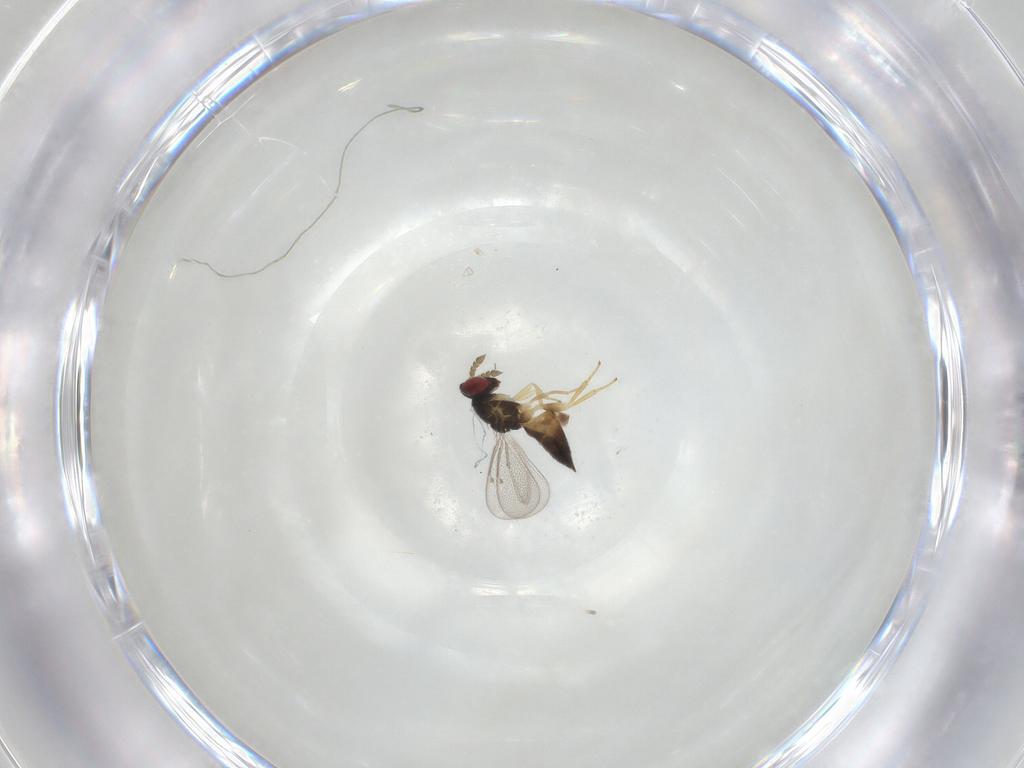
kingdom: Animalia
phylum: Arthropoda
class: Insecta
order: Hymenoptera
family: Eulophidae
